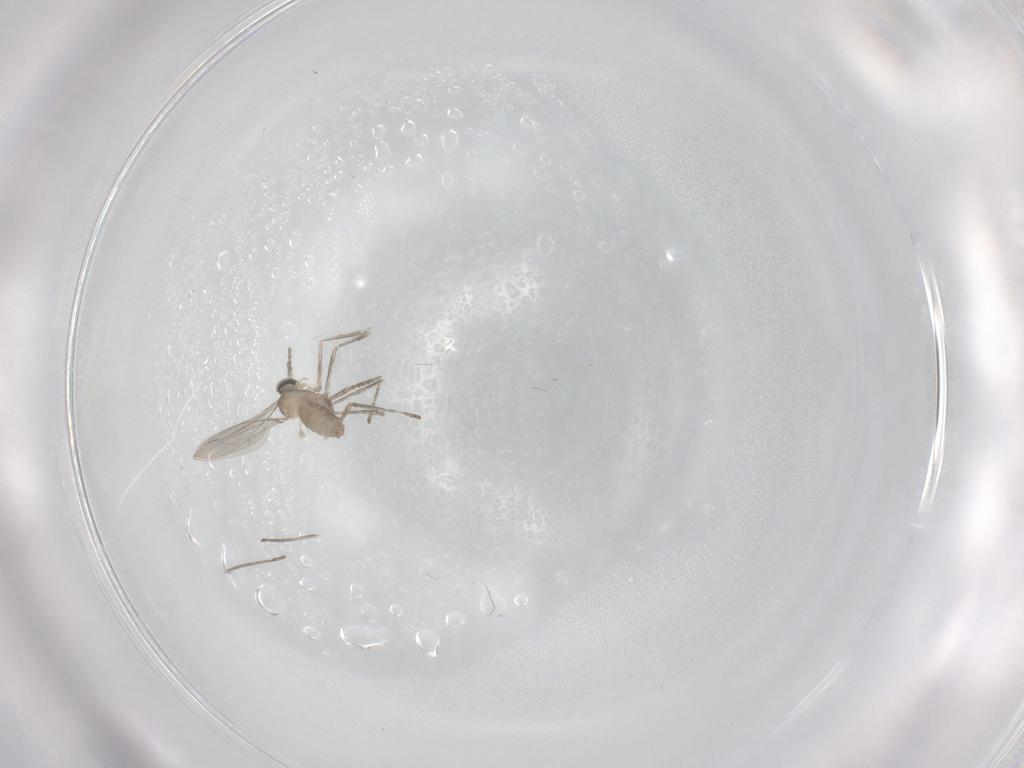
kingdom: Animalia
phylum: Arthropoda
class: Insecta
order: Diptera
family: Cecidomyiidae
